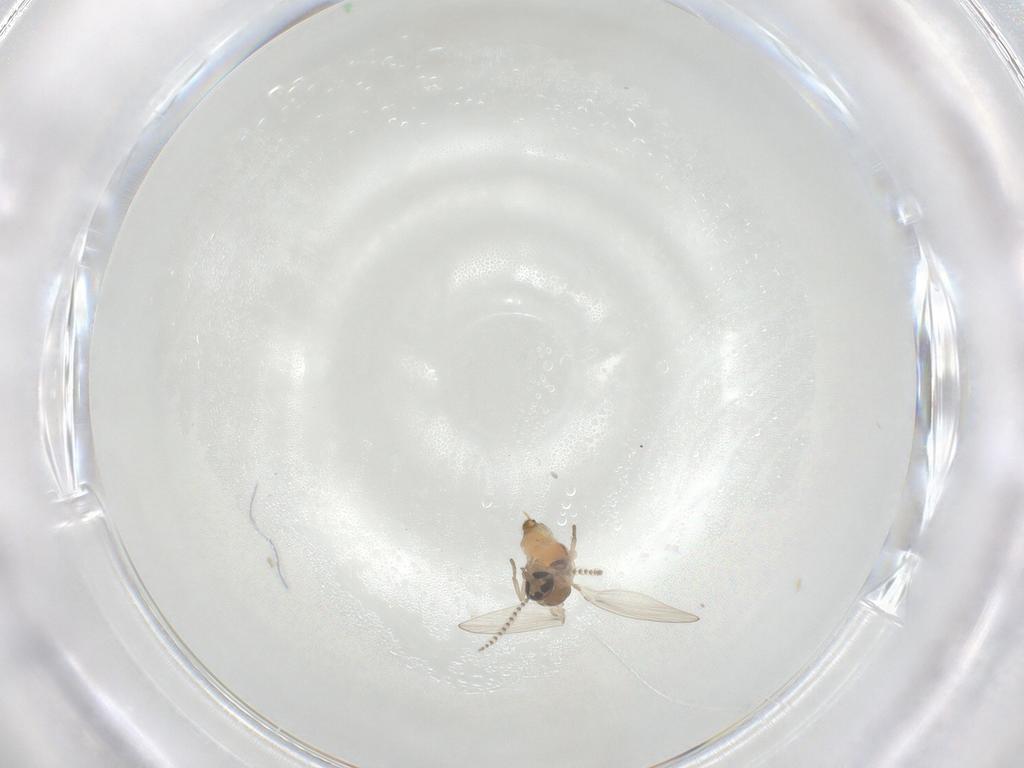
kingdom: Animalia
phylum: Arthropoda
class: Insecta
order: Diptera
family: Psychodidae
